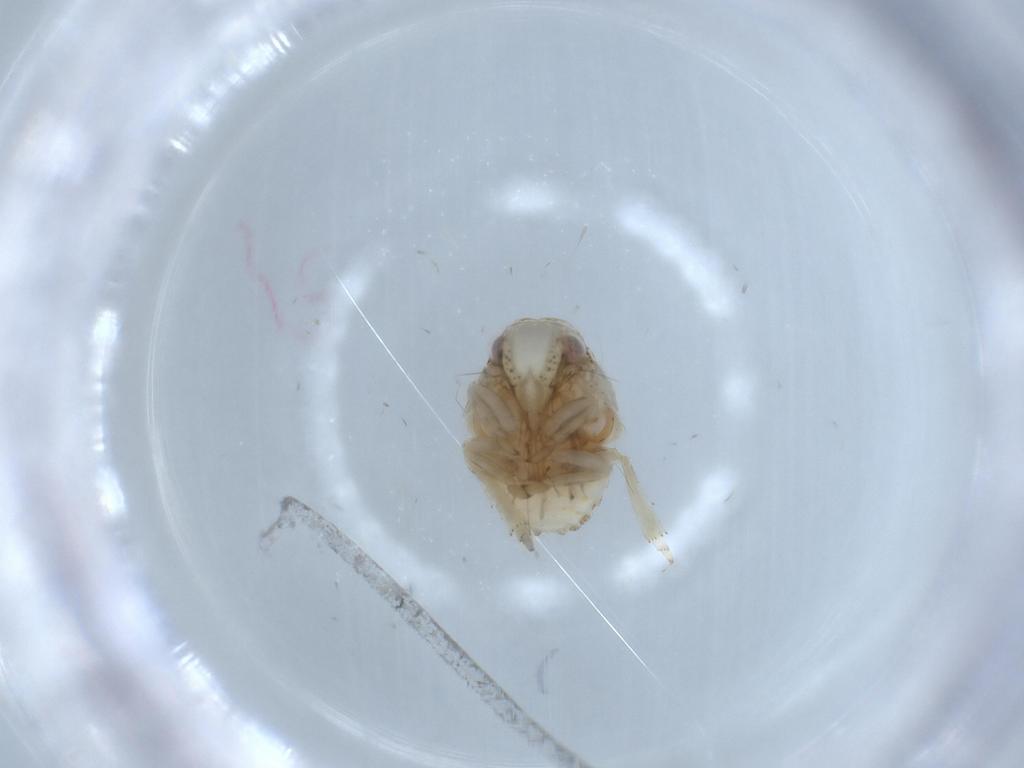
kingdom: Animalia
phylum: Arthropoda
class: Insecta
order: Hemiptera
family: Acanaloniidae
